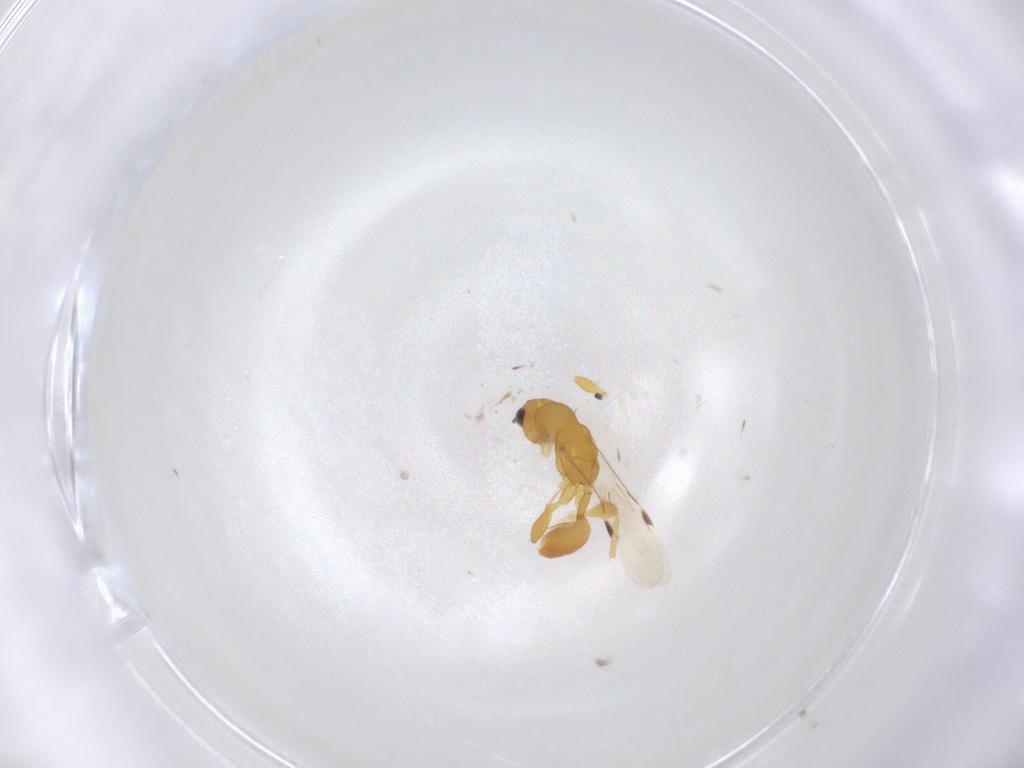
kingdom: Animalia
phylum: Arthropoda
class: Insecta
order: Hymenoptera
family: Eurytomidae
